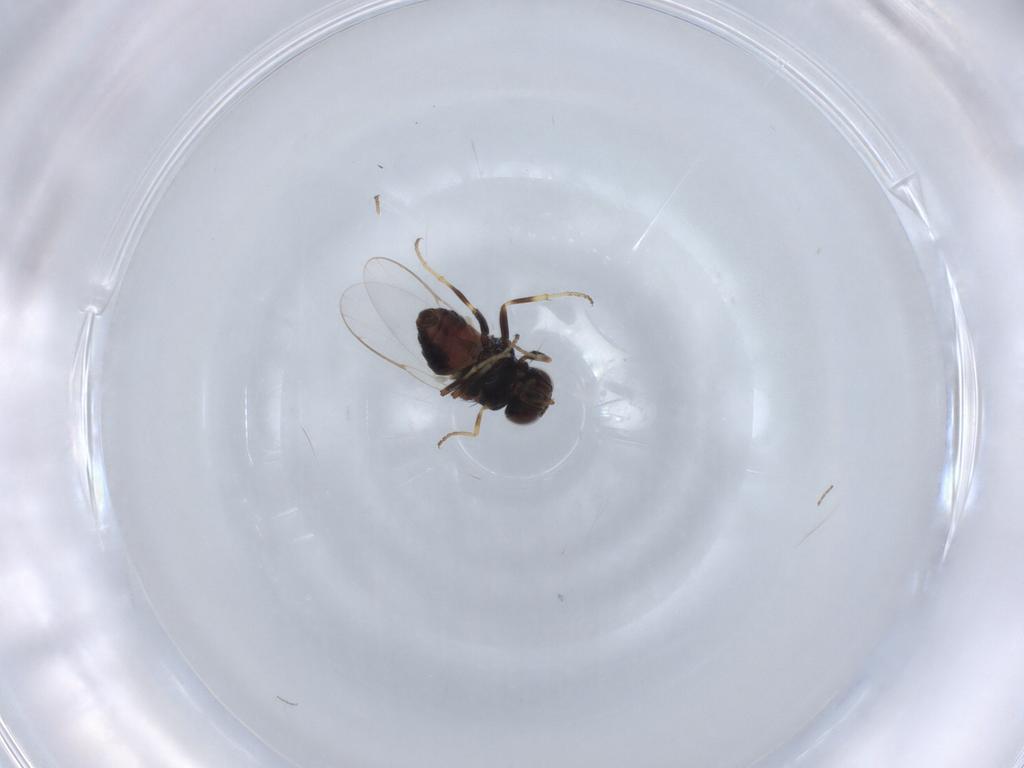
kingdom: Animalia
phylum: Arthropoda
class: Insecta
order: Diptera
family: Chloropidae
